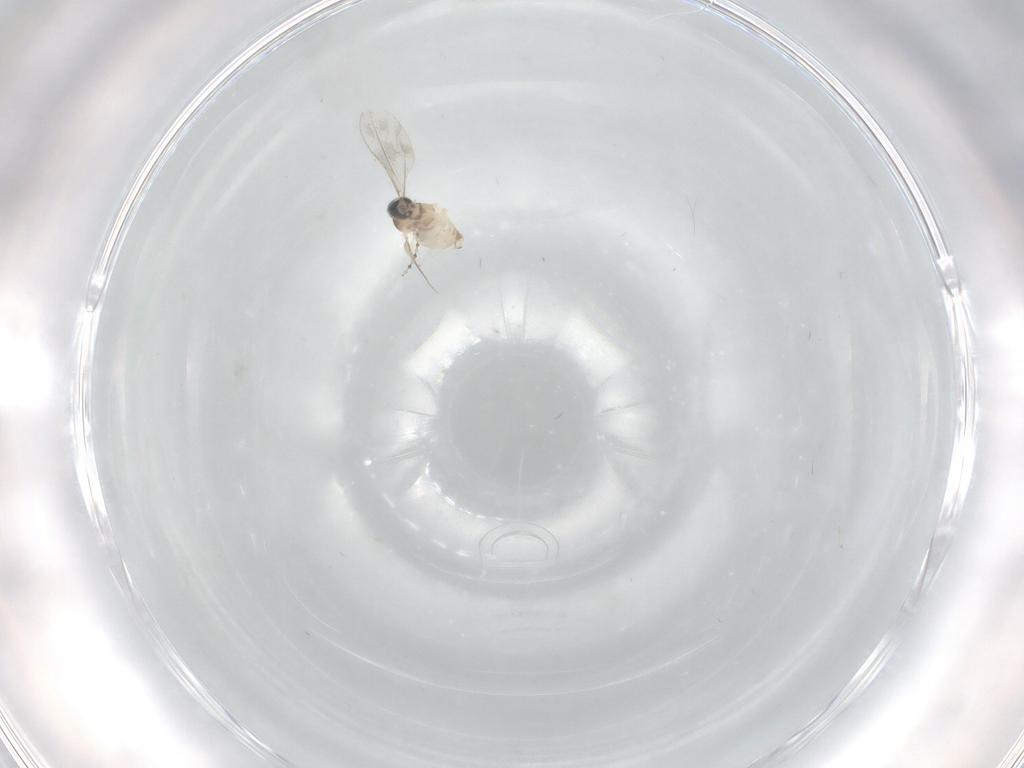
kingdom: Animalia
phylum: Arthropoda
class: Insecta
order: Diptera
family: Cecidomyiidae
